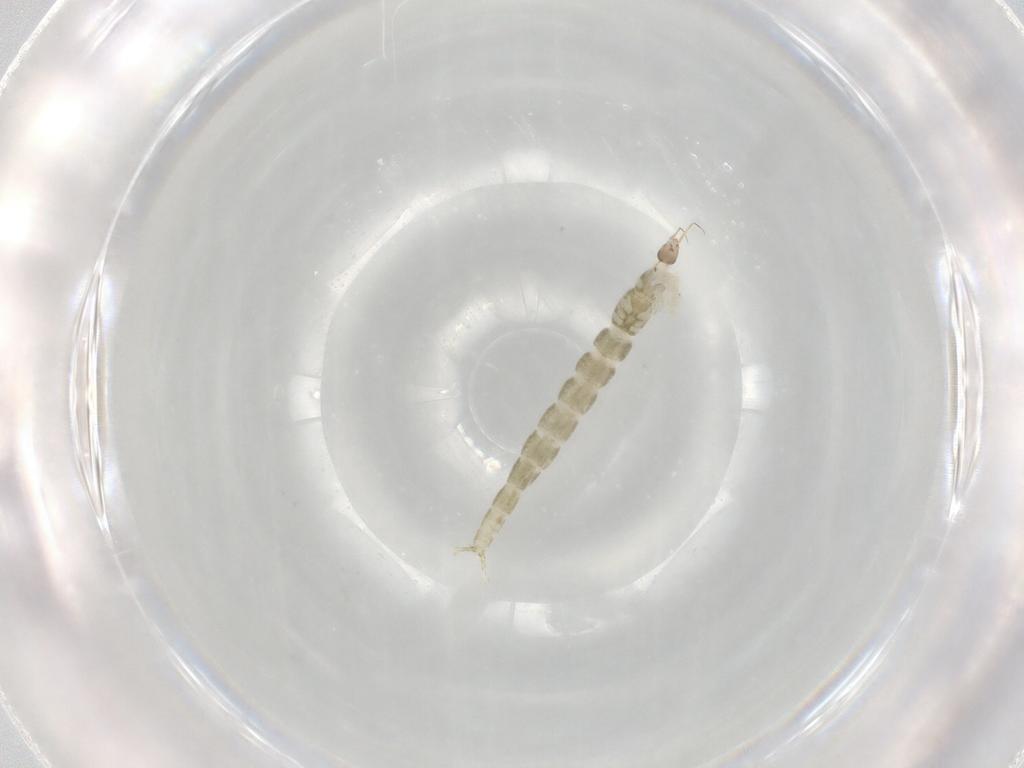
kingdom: Animalia
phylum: Arthropoda
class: Insecta
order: Diptera
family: Chironomidae
